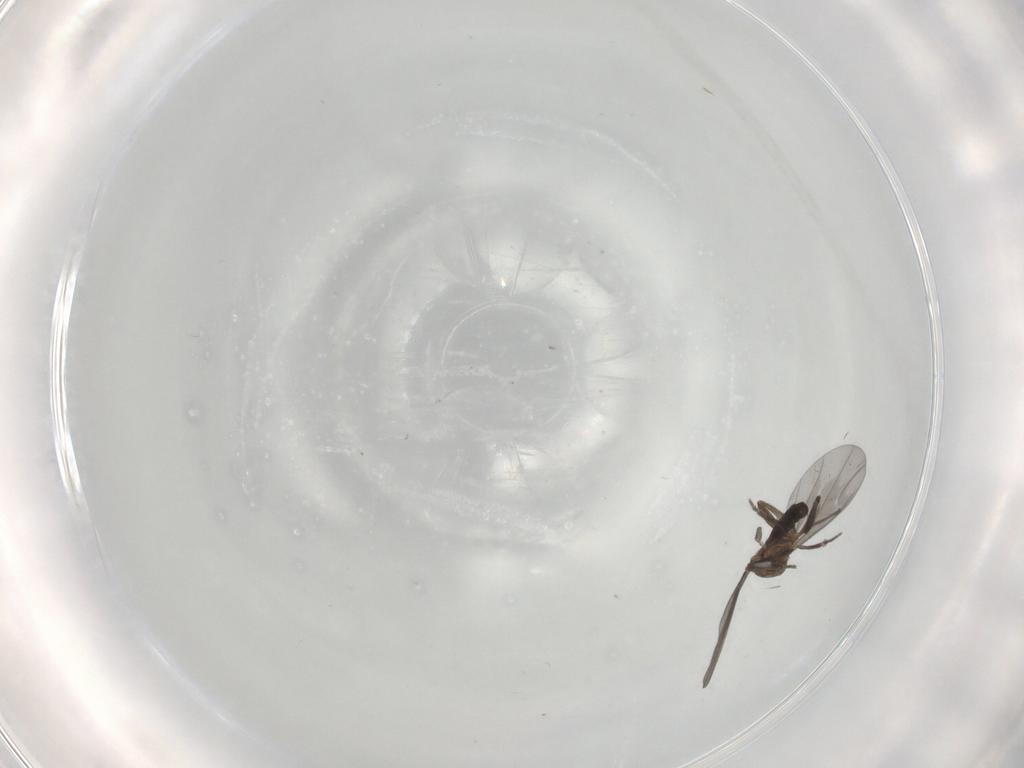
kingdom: Animalia
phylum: Arthropoda
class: Insecta
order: Diptera
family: Phoridae
